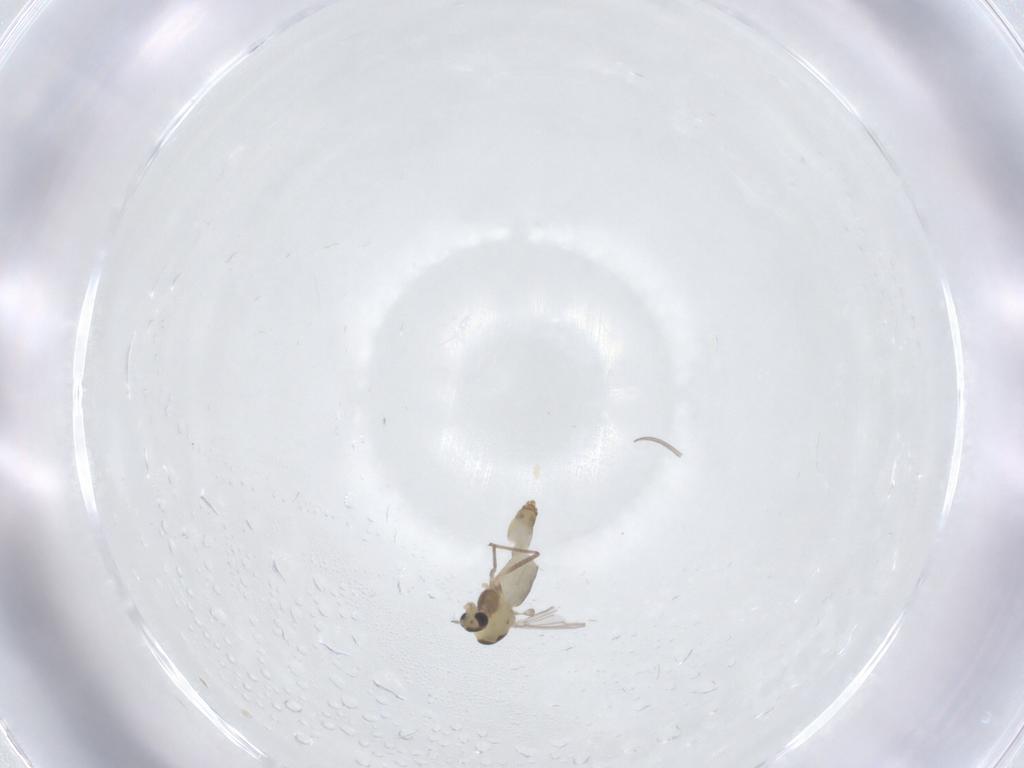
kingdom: Animalia
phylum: Arthropoda
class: Insecta
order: Diptera
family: Chironomidae
